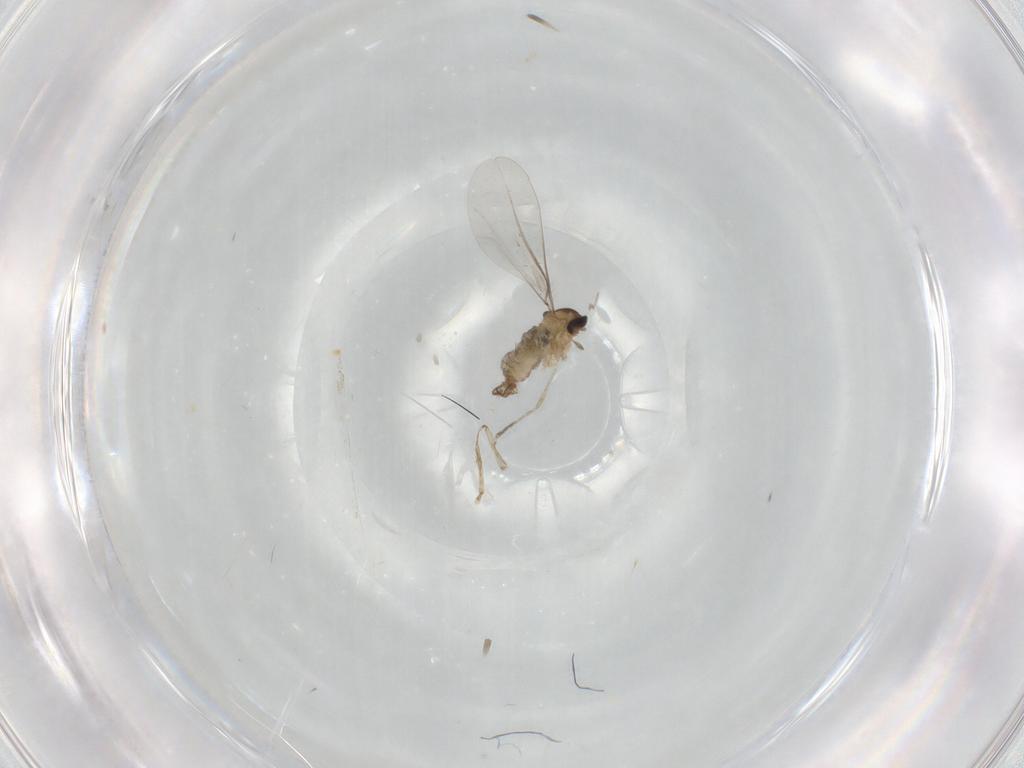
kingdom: Animalia
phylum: Arthropoda
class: Insecta
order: Diptera
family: Cecidomyiidae
